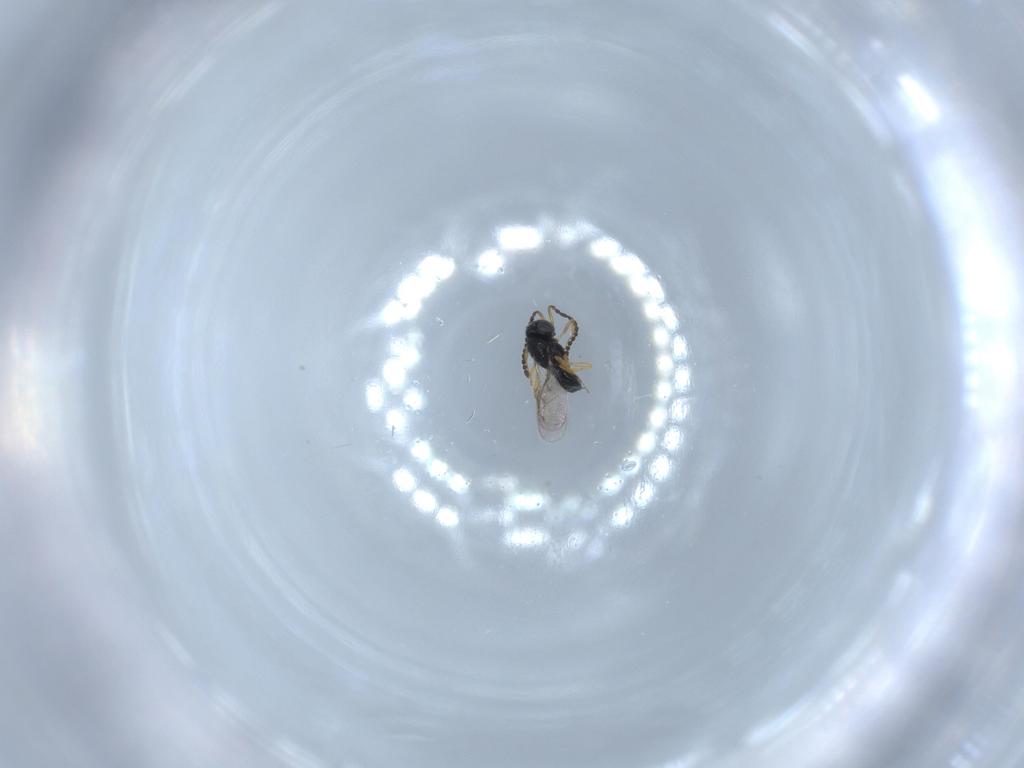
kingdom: Animalia
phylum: Arthropoda
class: Insecta
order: Hymenoptera
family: Scelionidae
